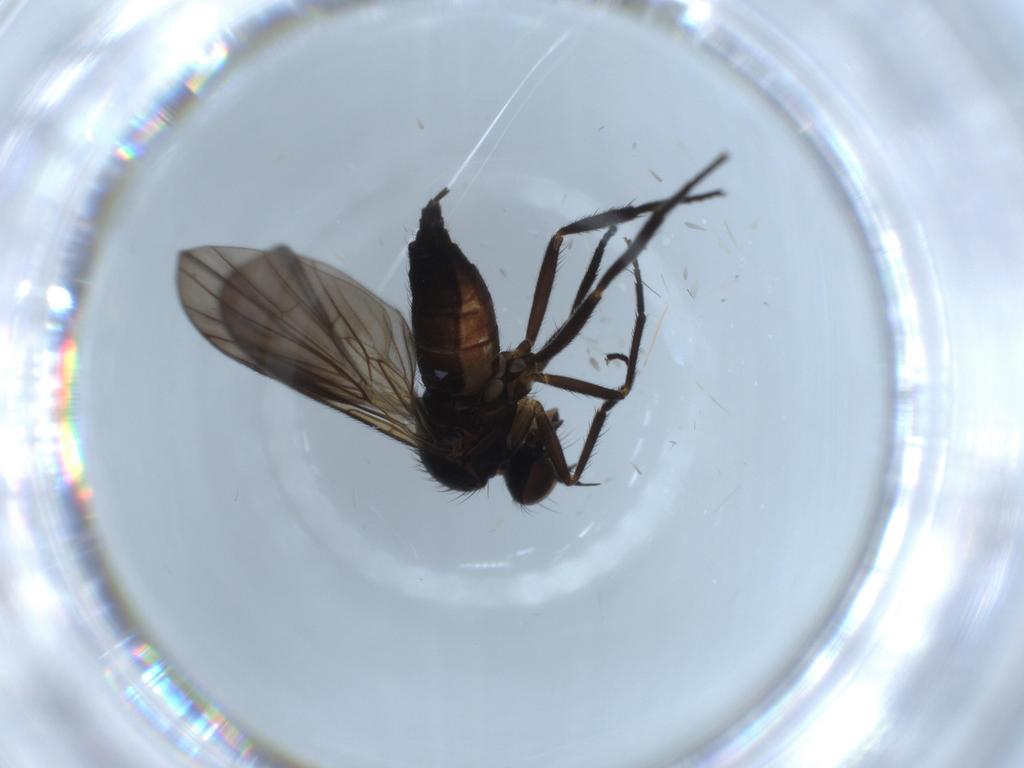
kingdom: Animalia
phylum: Arthropoda
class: Insecta
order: Diptera
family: Empididae
